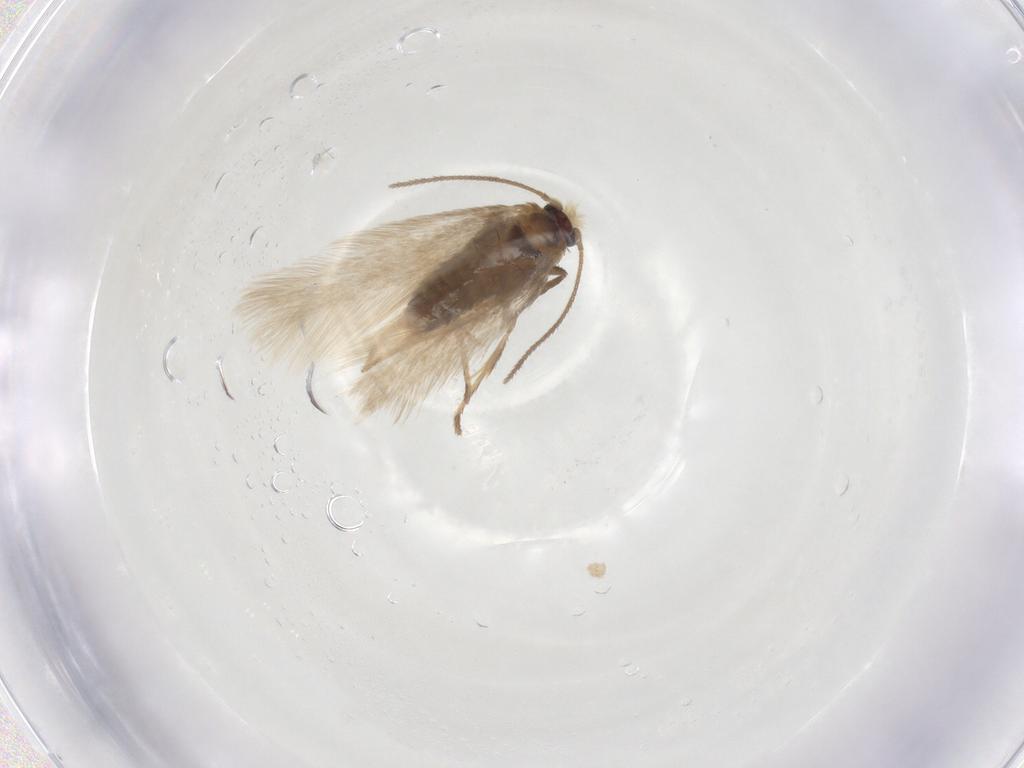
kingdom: Animalia
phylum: Arthropoda
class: Insecta
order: Lepidoptera
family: Nepticulidae
